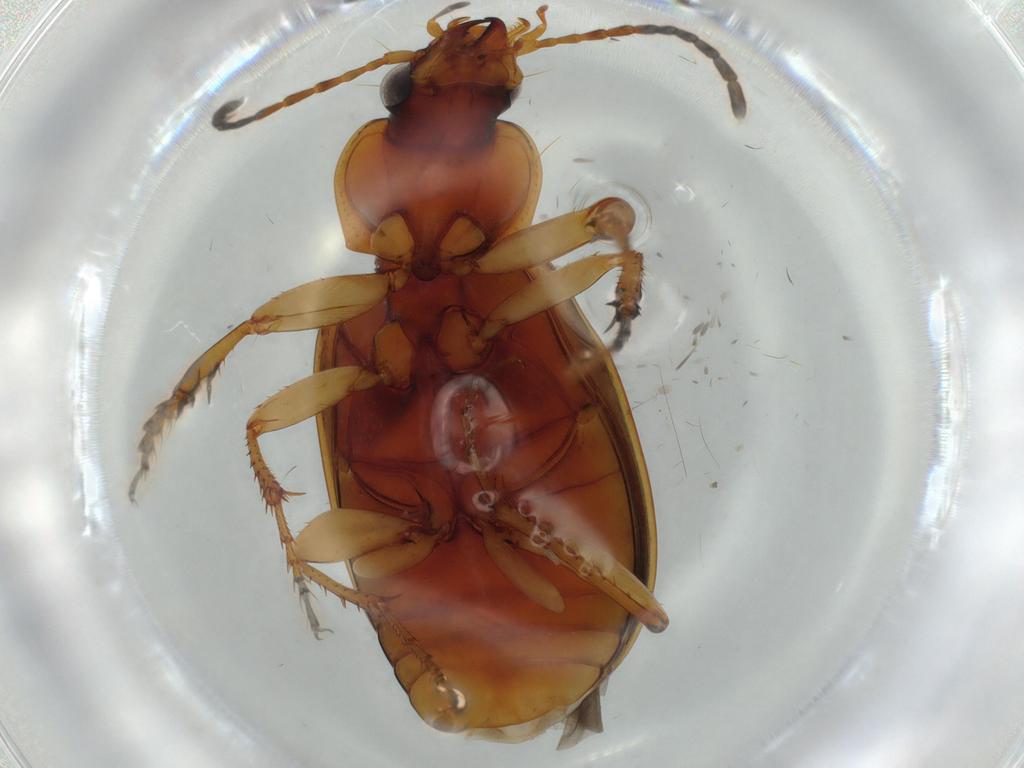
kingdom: Animalia
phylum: Arthropoda
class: Insecta
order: Coleoptera
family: Carabidae
